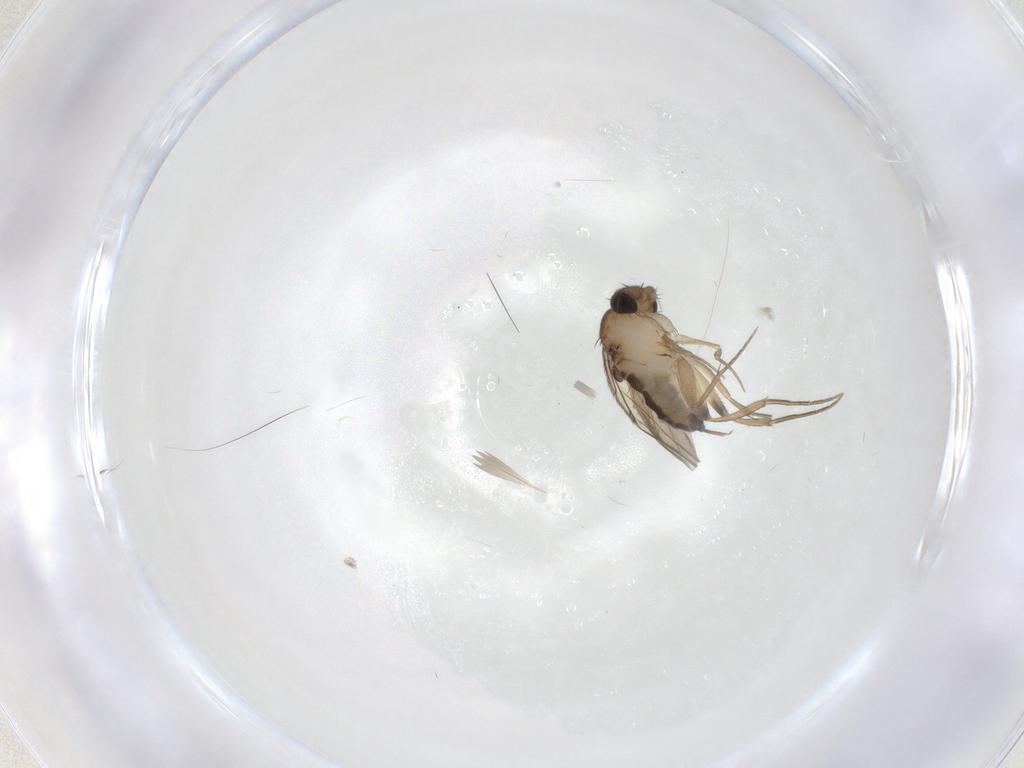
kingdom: Animalia
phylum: Arthropoda
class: Insecta
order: Diptera
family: Phoridae
